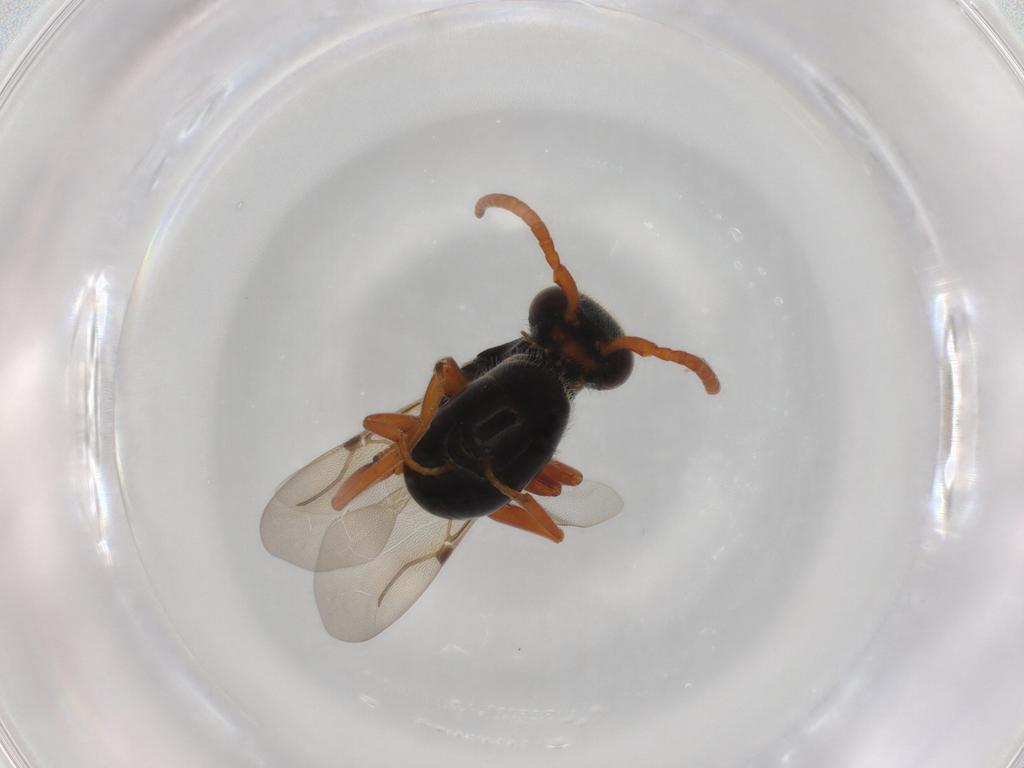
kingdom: Animalia
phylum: Arthropoda
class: Insecta
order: Hymenoptera
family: Bethylidae
